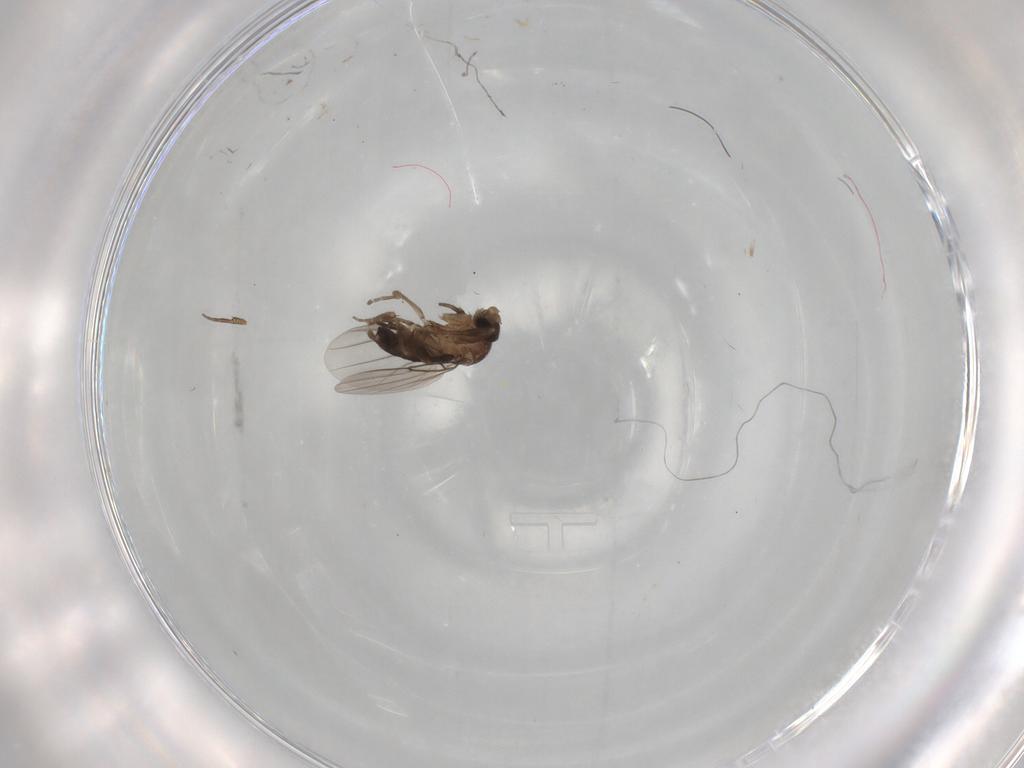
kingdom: Animalia
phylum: Arthropoda
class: Insecta
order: Diptera
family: Phoridae
